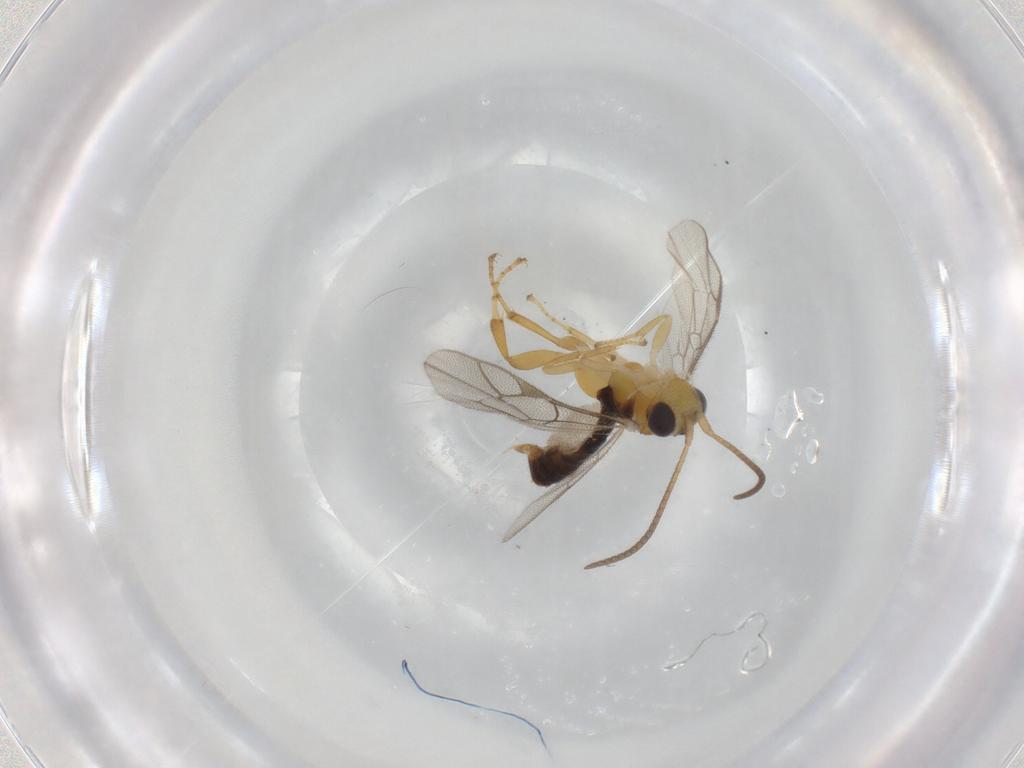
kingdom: Animalia
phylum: Arthropoda
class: Insecta
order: Hymenoptera
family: Ichneumonidae
